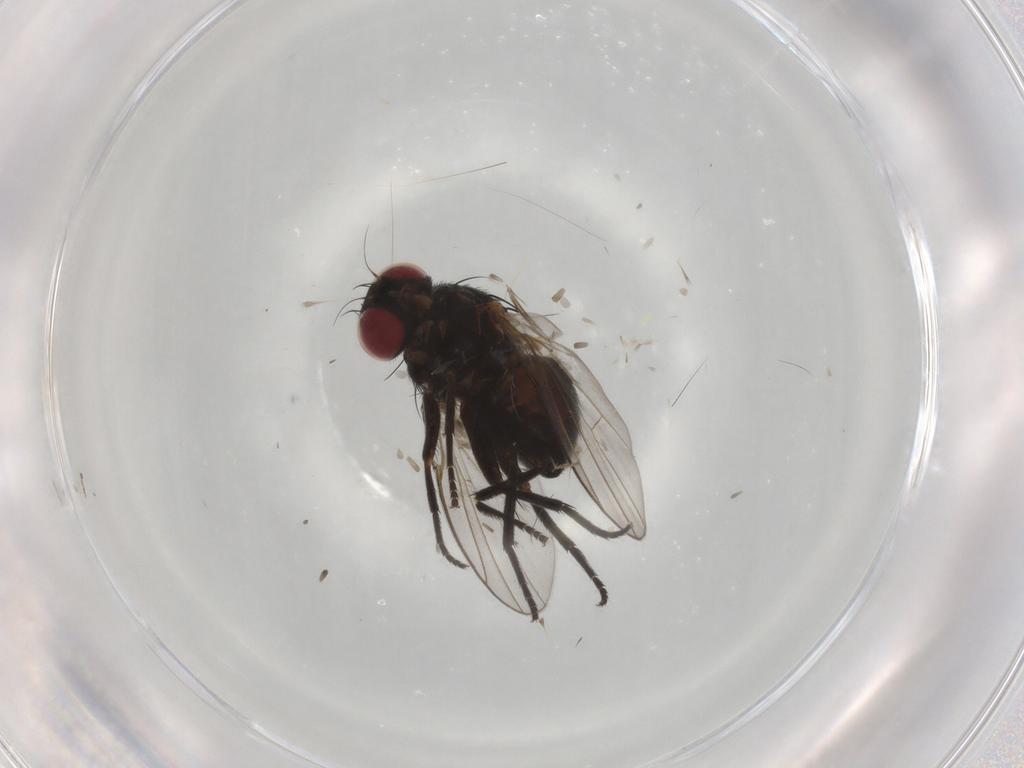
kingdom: Animalia
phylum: Arthropoda
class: Insecta
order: Diptera
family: Agromyzidae
